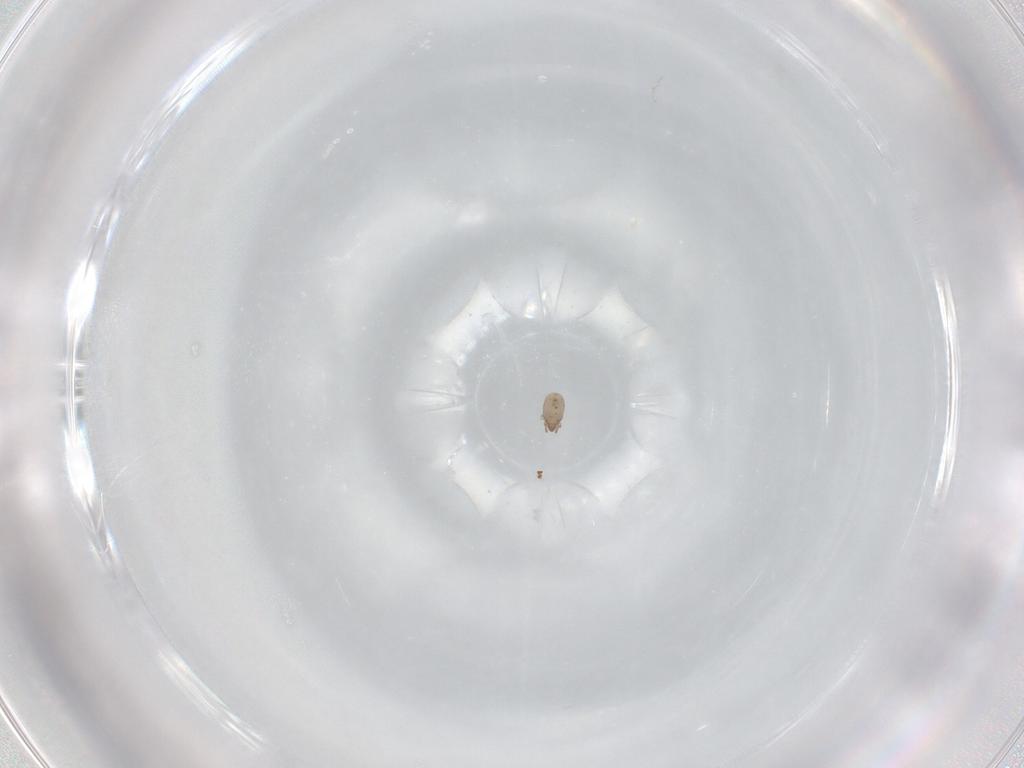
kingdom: Animalia
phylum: Arthropoda
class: Arachnida
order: Sarcoptiformes
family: Tectocepheidae
